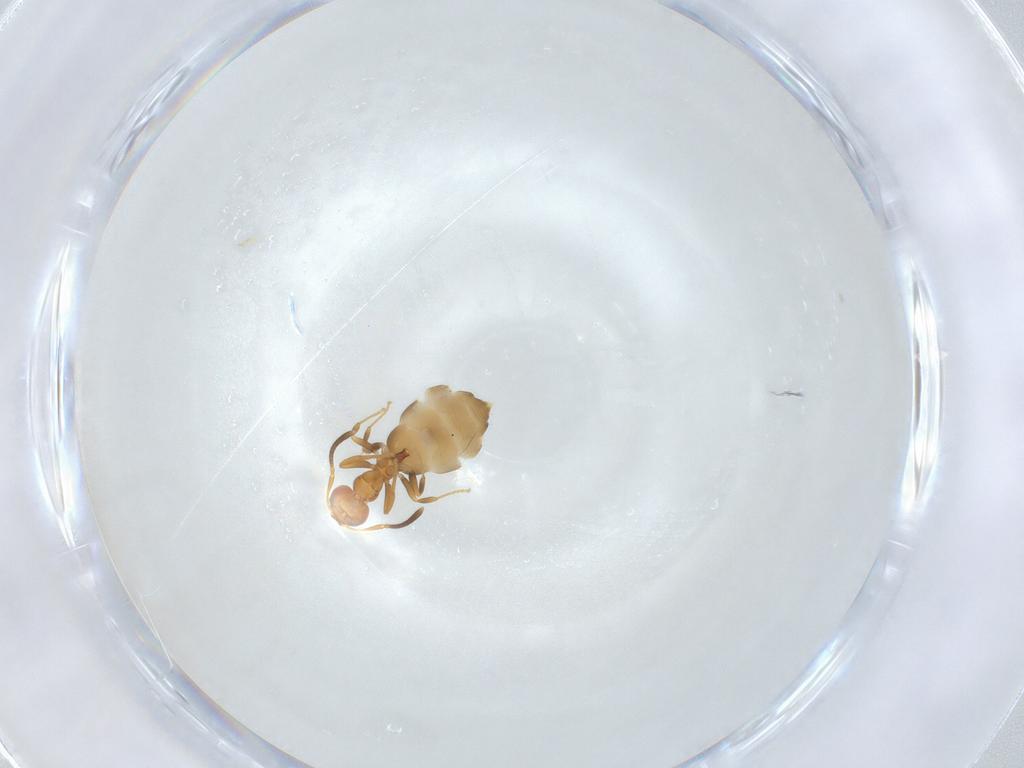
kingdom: Animalia
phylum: Arthropoda
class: Insecta
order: Hymenoptera
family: Formicidae
